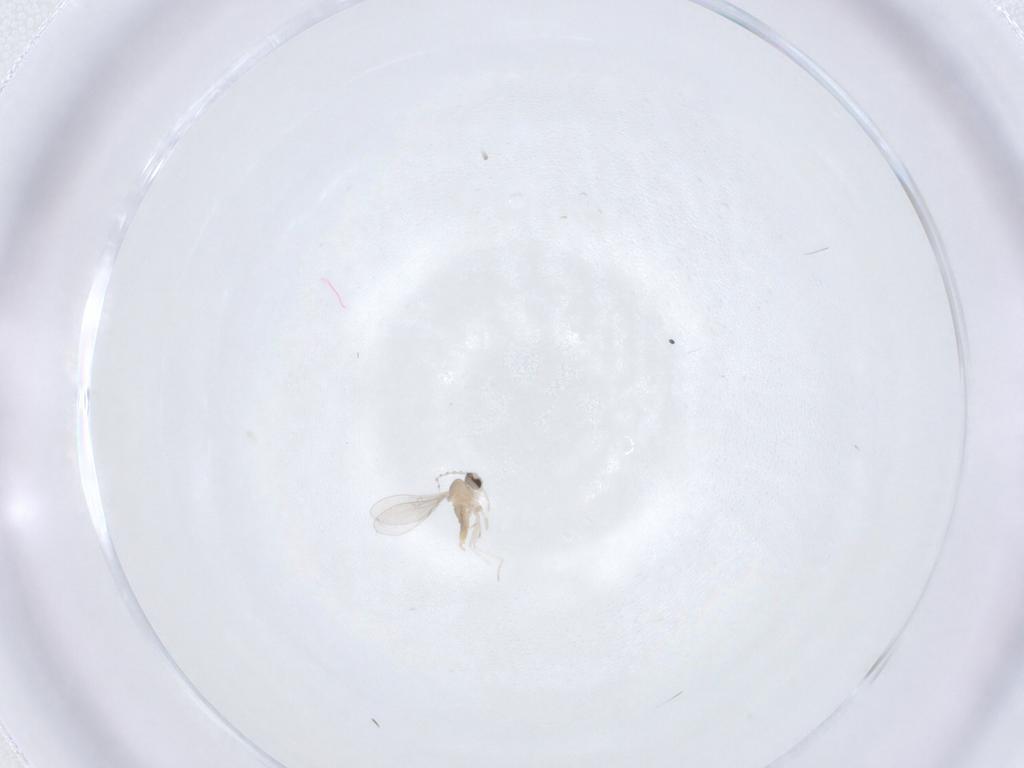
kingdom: Animalia
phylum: Arthropoda
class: Insecta
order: Diptera
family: Cecidomyiidae
